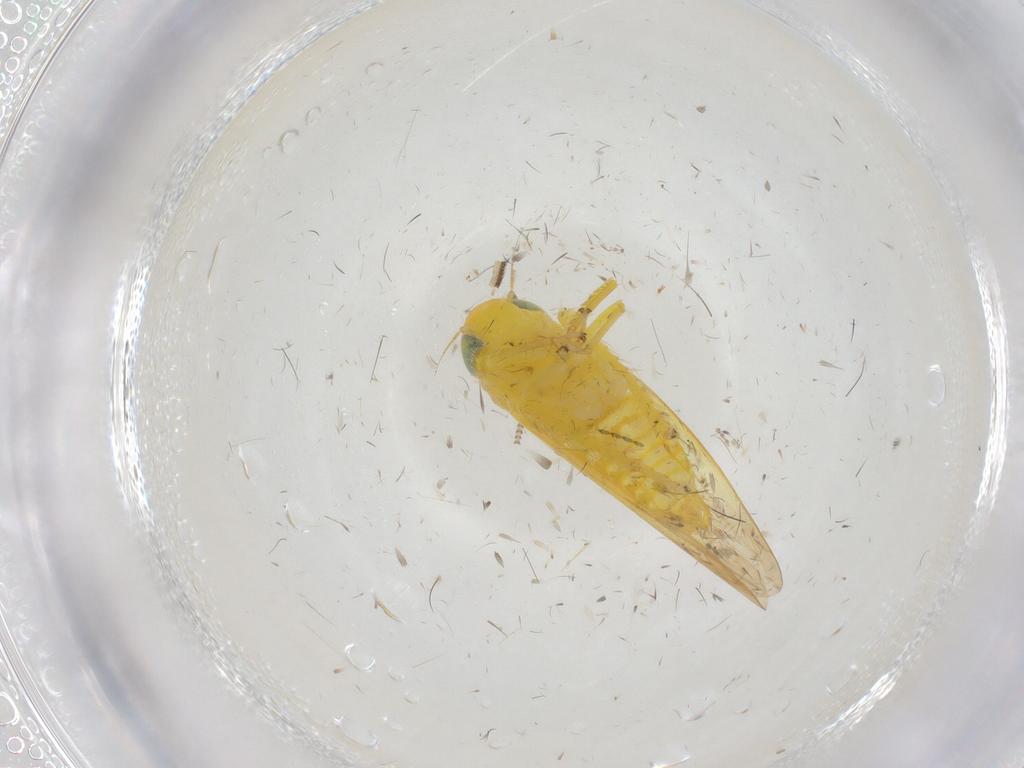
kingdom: Animalia
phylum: Arthropoda
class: Insecta
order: Hemiptera
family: Cicadellidae
